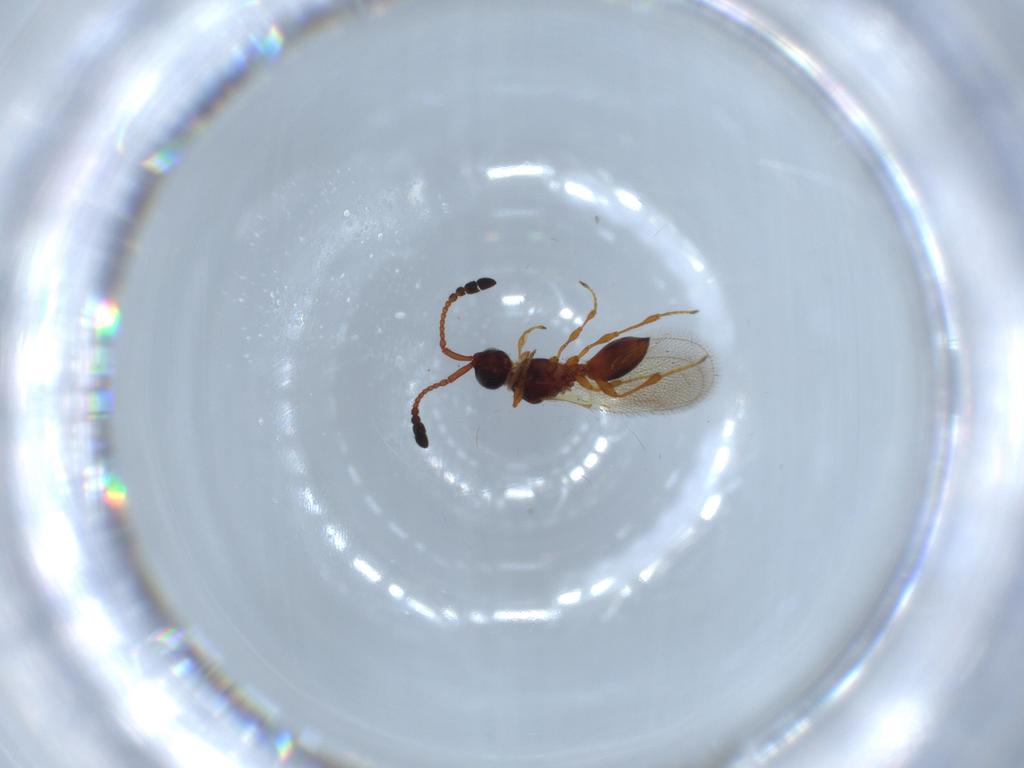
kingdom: Animalia
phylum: Arthropoda
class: Insecta
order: Hymenoptera
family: Diapriidae
